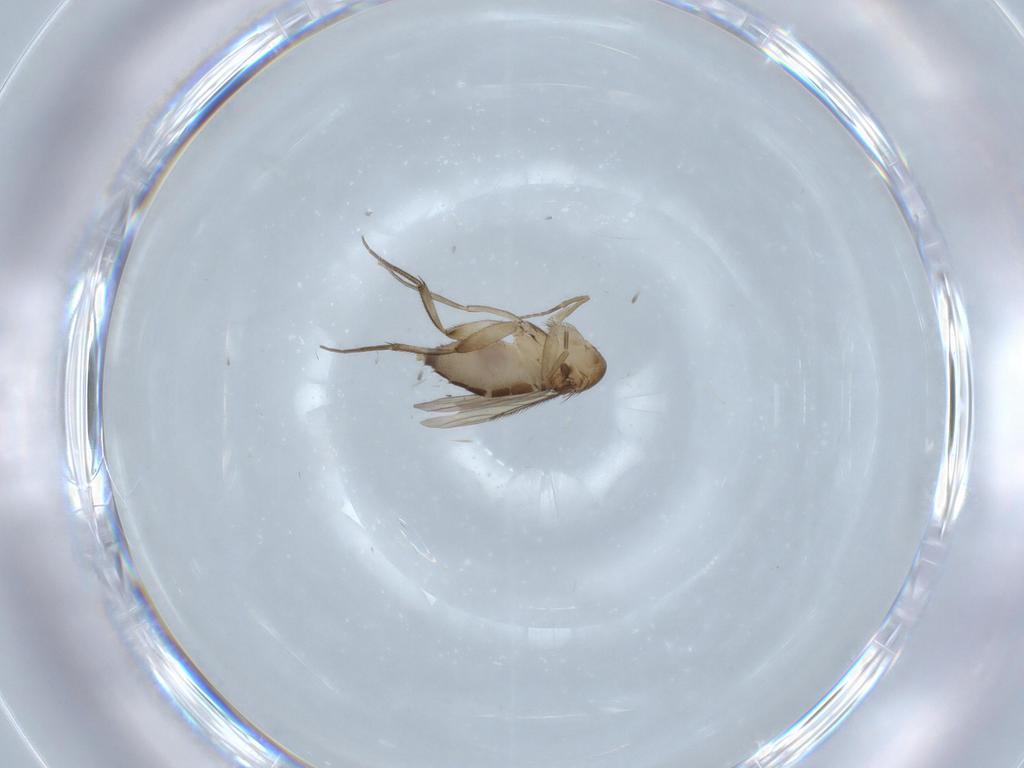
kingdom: Animalia
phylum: Arthropoda
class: Insecta
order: Diptera
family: Phoridae
